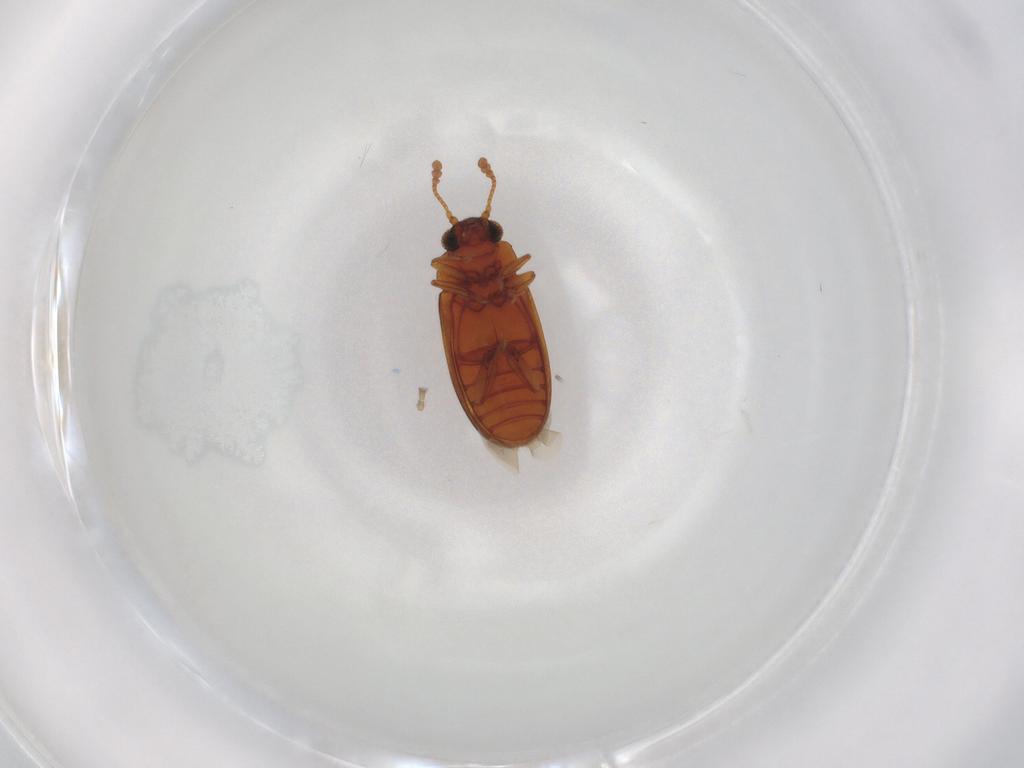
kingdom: Animalia
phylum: Arthropoda
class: Insecta
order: Coleoptera
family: Erotylidae
